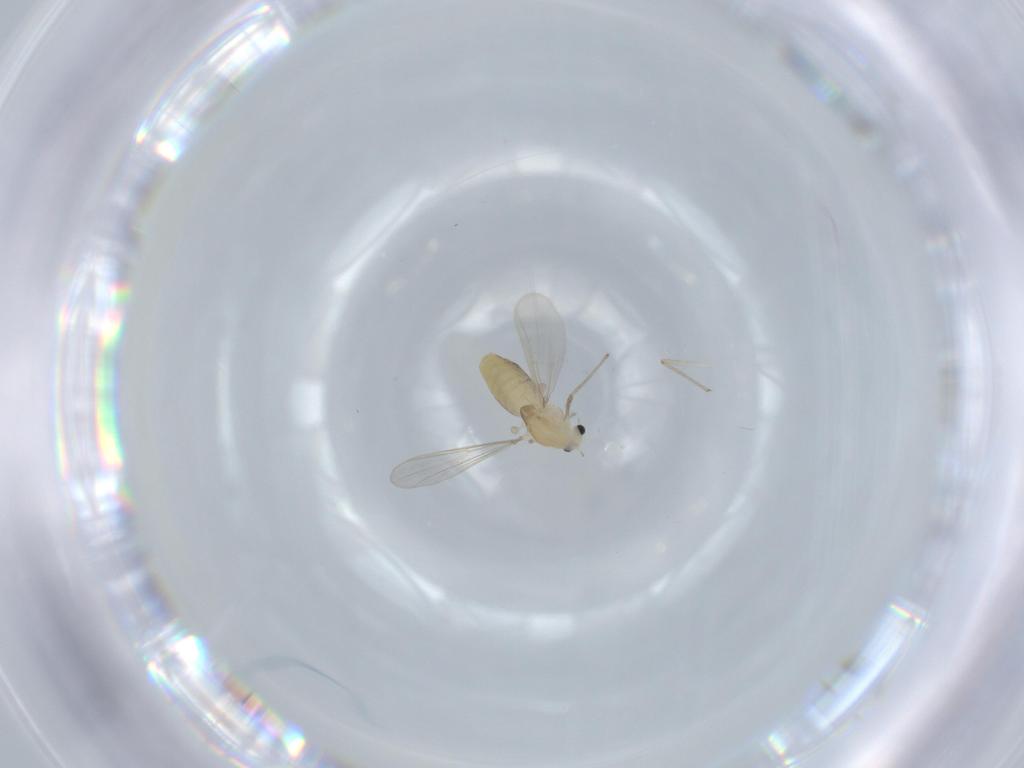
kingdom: Animalia
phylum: Arthropoda
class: Insecta
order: Diptera
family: Chironomidae
